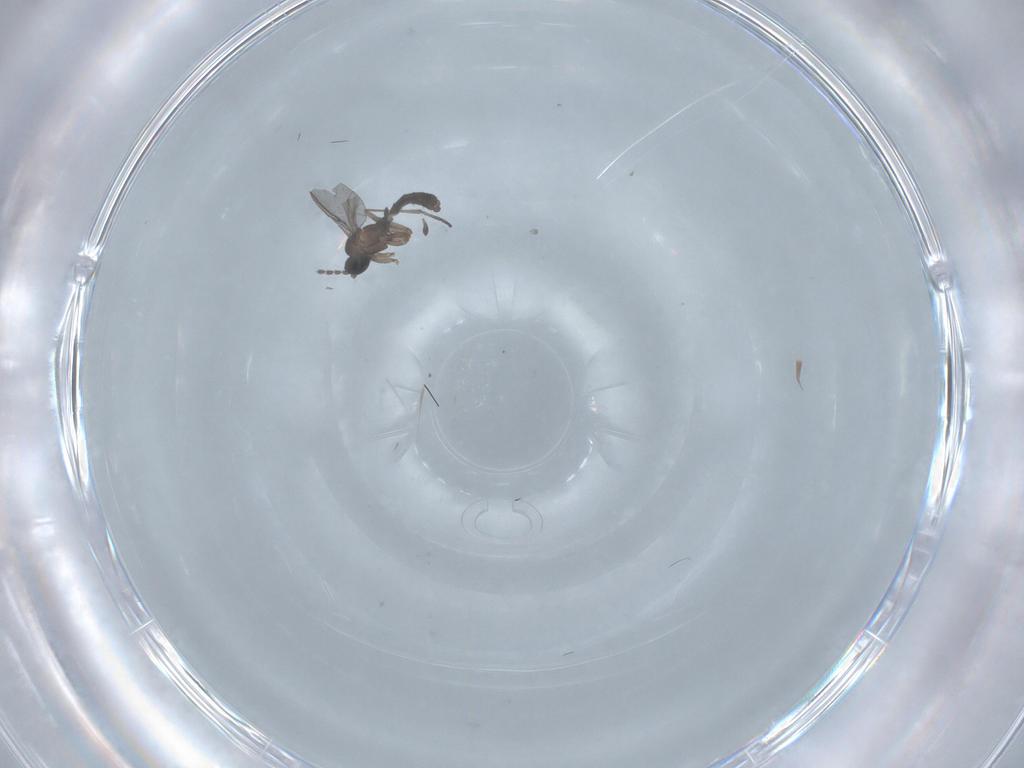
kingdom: Animalia
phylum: Arthropoda
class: Insecta
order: Diptera
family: Sciaridae
